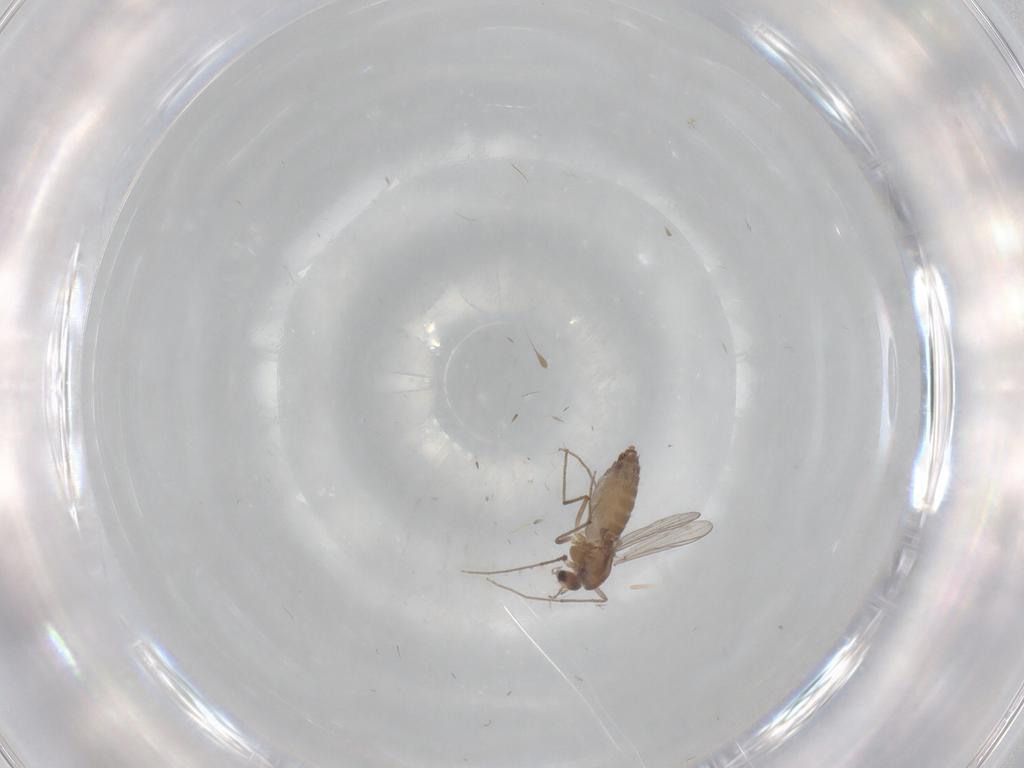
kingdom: Animalia
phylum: Arthropoda
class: Insecta
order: Diptera
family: Chironomidae
